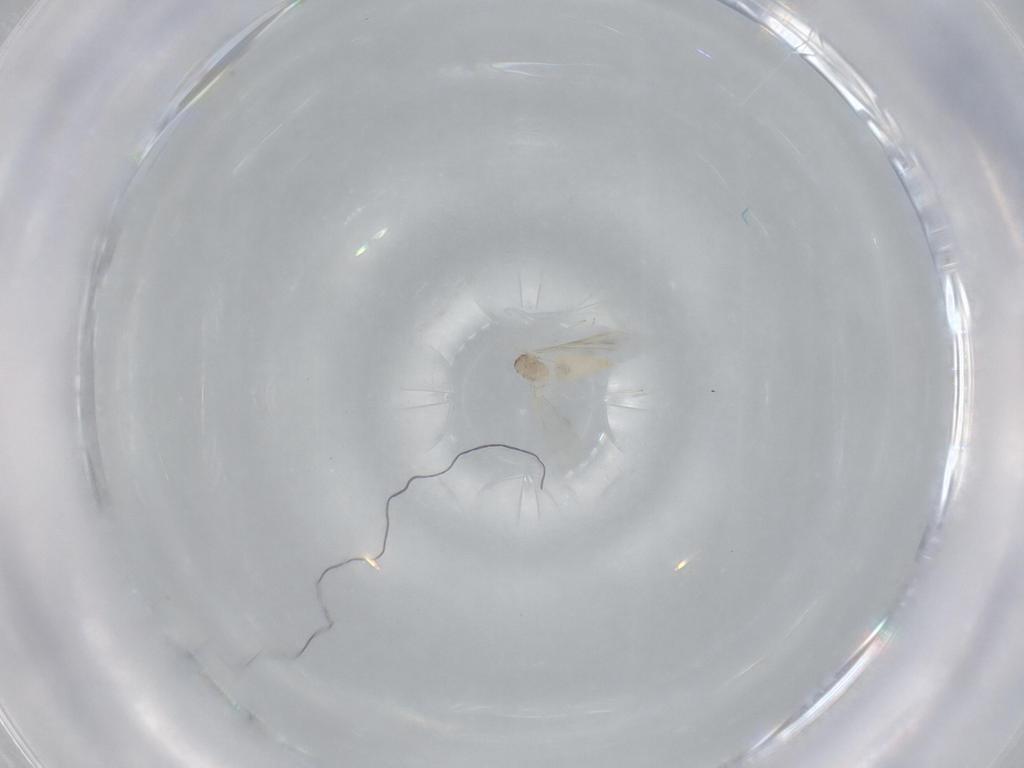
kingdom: Animalia
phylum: Arthropoda
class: Insecta
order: Diptera
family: Cecidomyiidae
